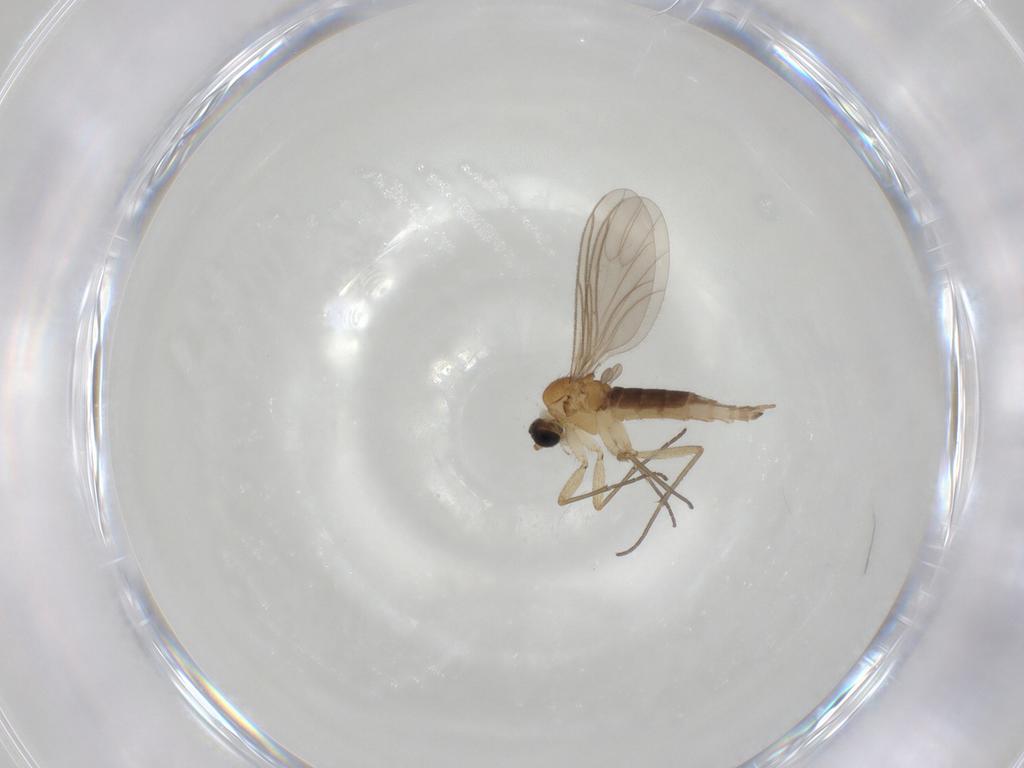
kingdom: Animalia
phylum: Arthropoda
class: Insecta
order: Diptera
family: Sciaridae
